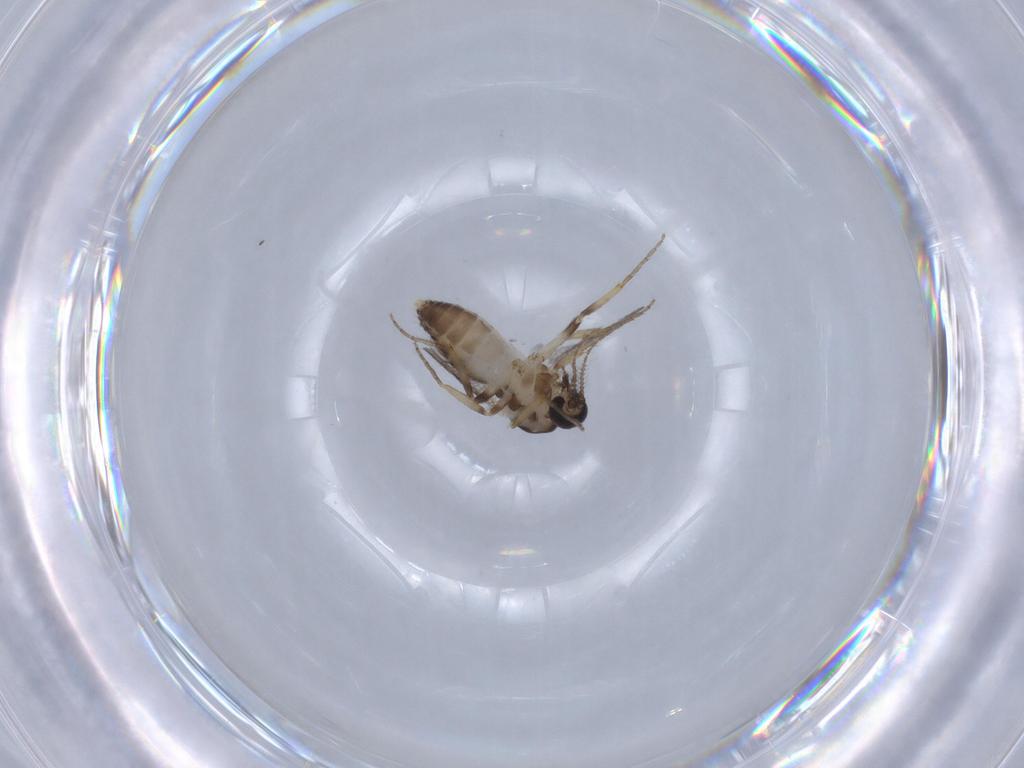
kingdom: Animalia
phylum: Arthropoda
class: Insecta
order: Diptera
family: Ceratopogonidae
